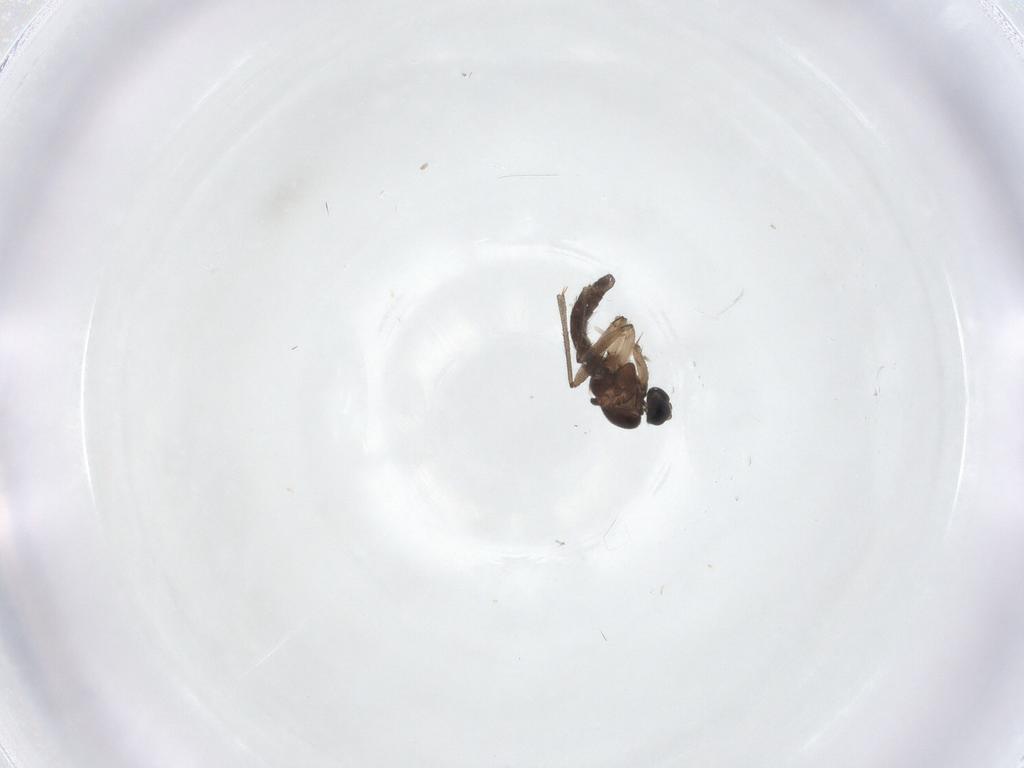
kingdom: Animalia
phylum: Arthropoda
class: Insecta
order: Diptera
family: Sciaridae
